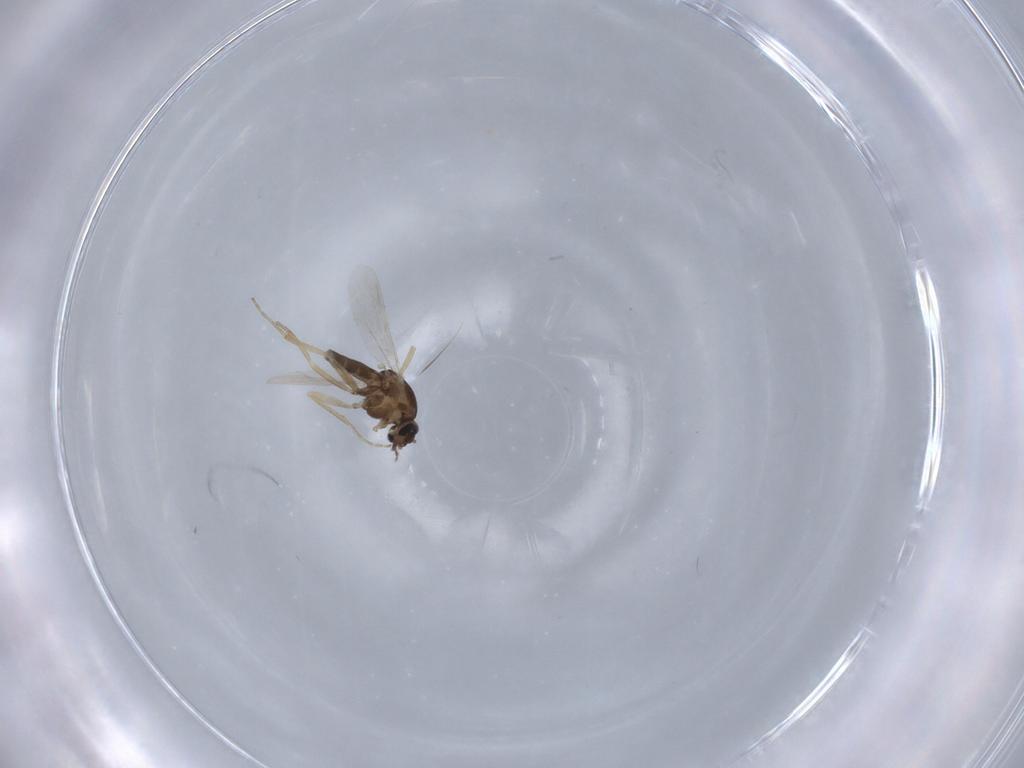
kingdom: Animalia
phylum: Arthropoda
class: Insecta
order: Diptera
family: Ceratopogonidae
